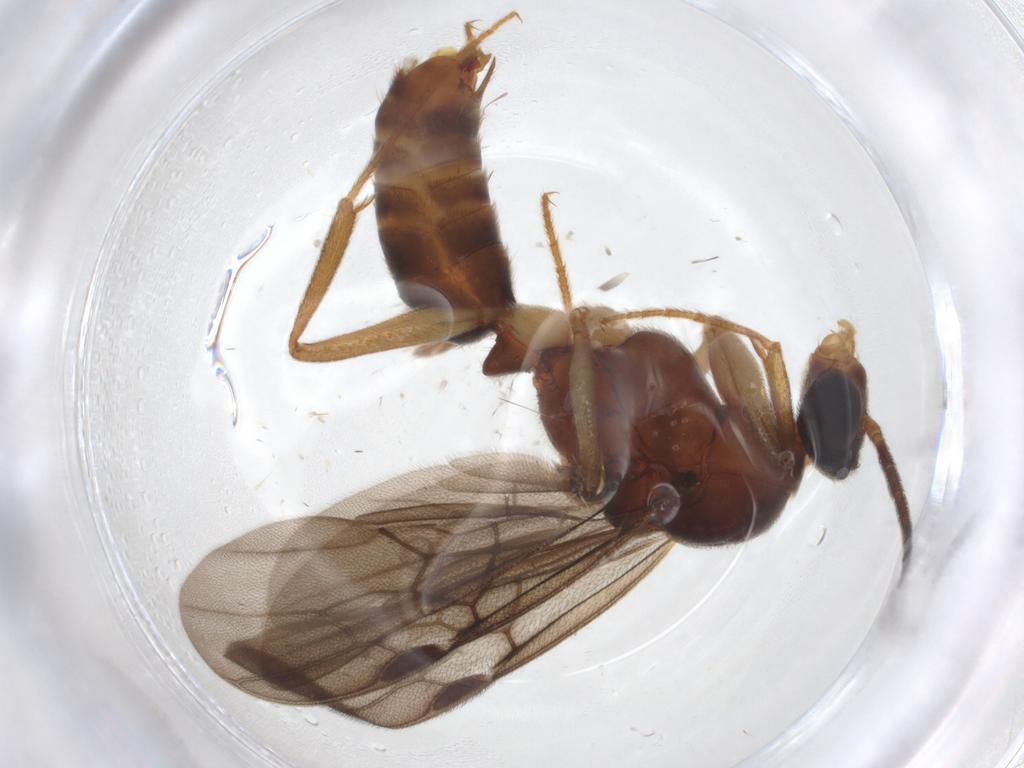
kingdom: Animalia
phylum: Arthropoda
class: Insecta
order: Hymenoptera
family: Formicidae
